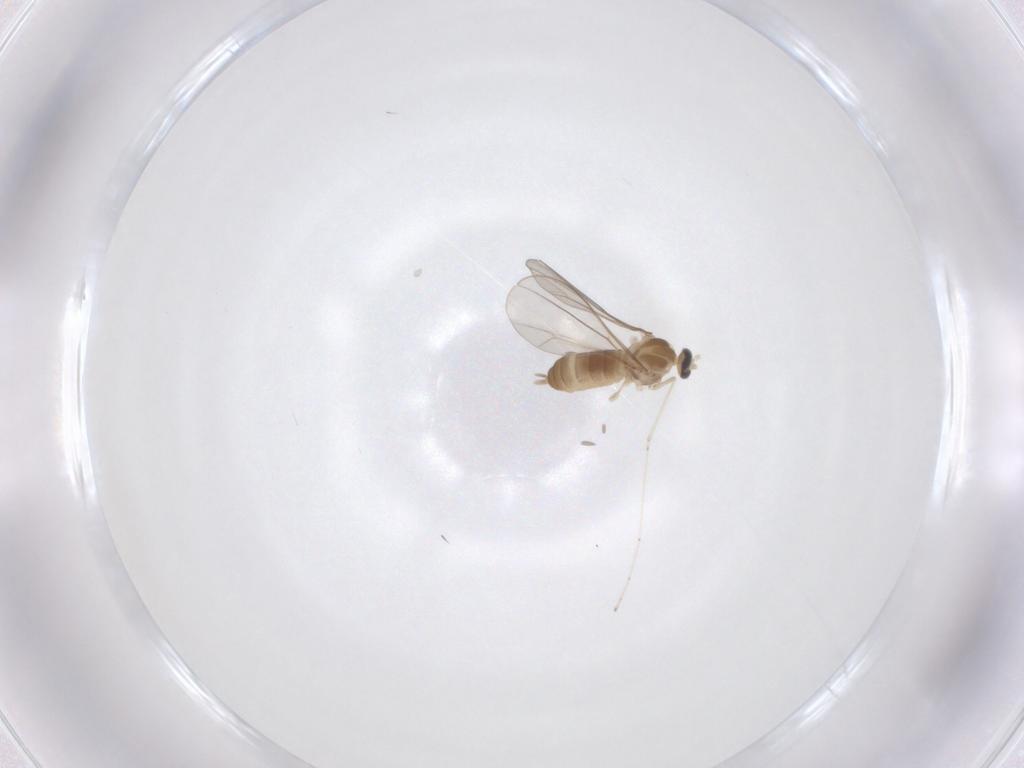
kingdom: Animalia
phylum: Arthropoda
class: Insecta
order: Diptera
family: Cecidomyiidae
